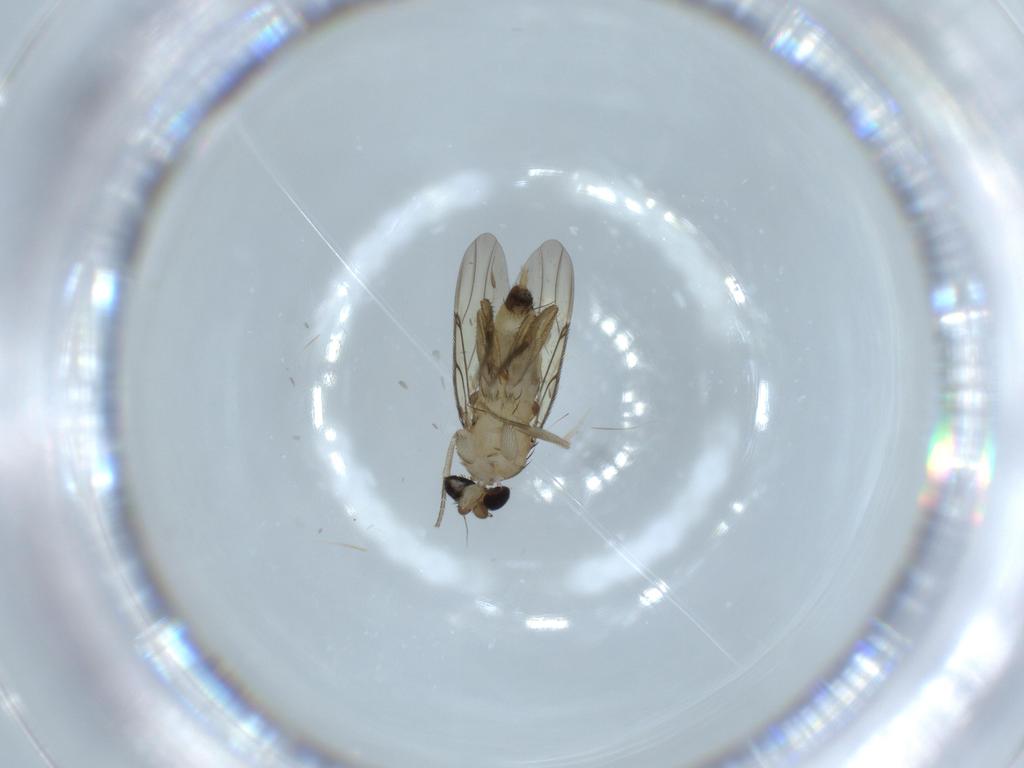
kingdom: Animalia
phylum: Arthropoda
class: Insecta
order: Diptera
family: Phoridae
